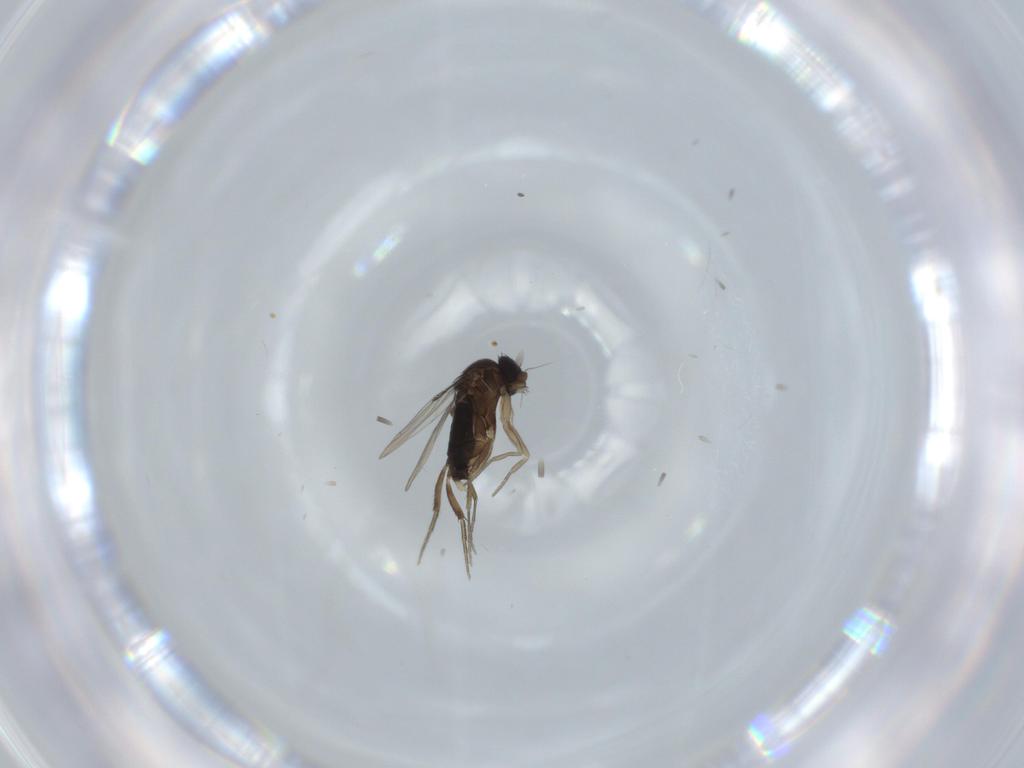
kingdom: Animalia
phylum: Arthropoda
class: Insecta
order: Diptera
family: Phoridae
